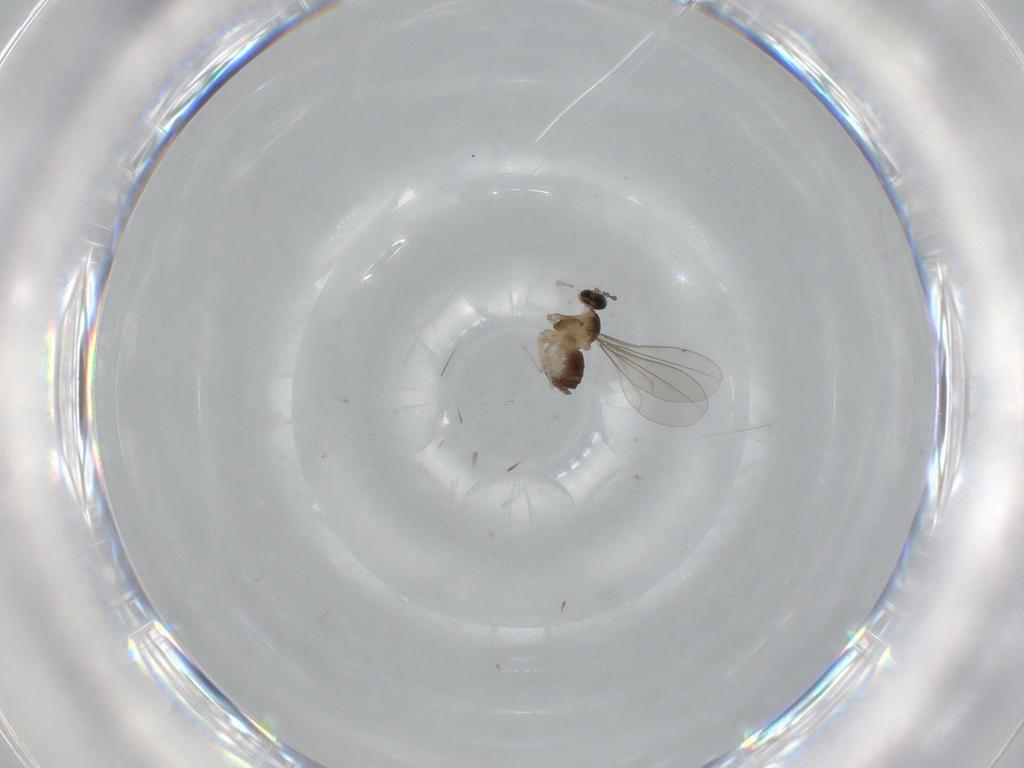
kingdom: Animalia
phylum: Arthropoda
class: Insecta
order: Diptera
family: Cecidomyiidae
